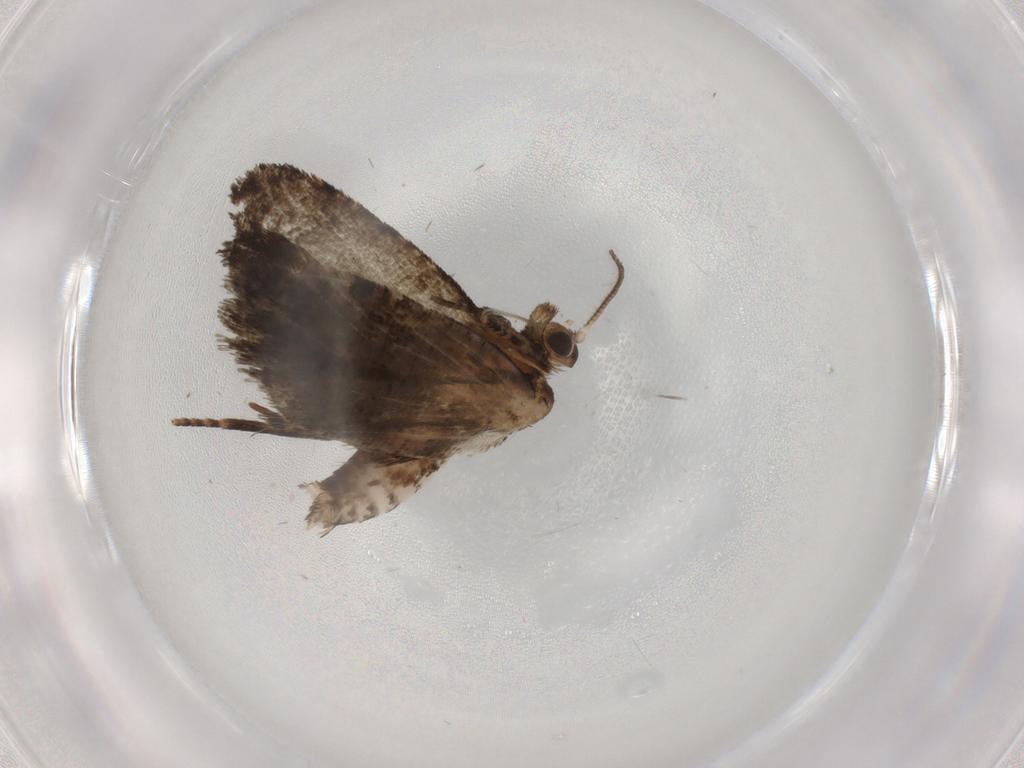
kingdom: Animalia
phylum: Arthropoda
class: Insecta
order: Lepidoptera
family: Tortricidae
